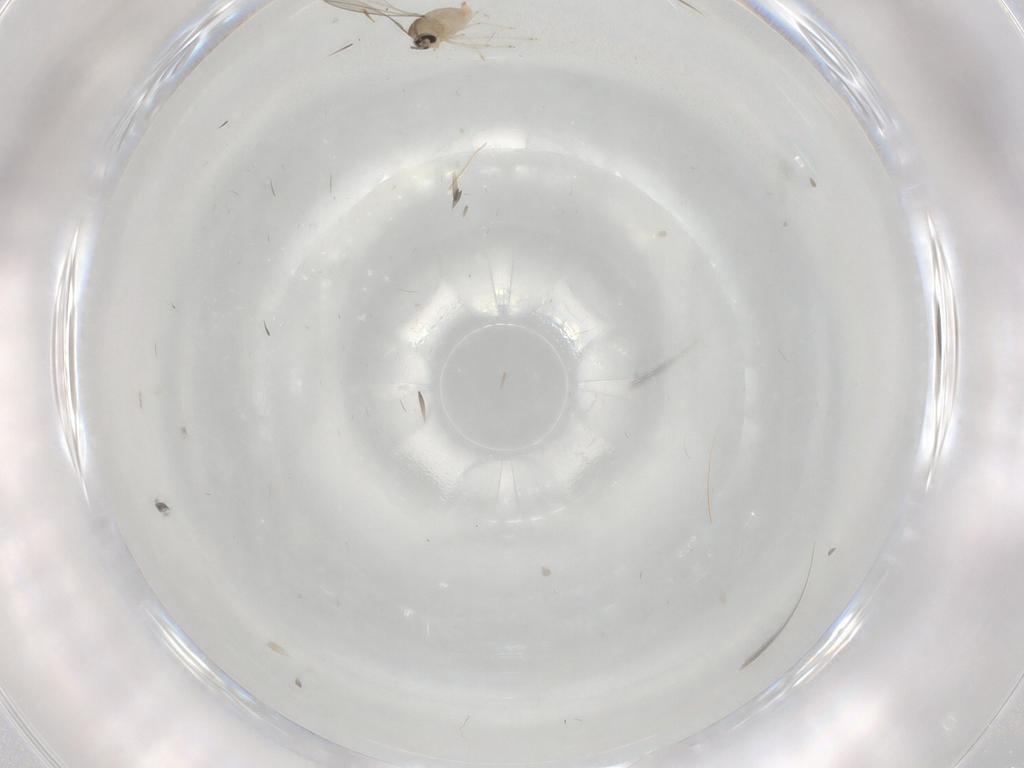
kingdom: Animalia
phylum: Arthropoda
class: Insecta
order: Diptera
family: Cecidomyiidae
